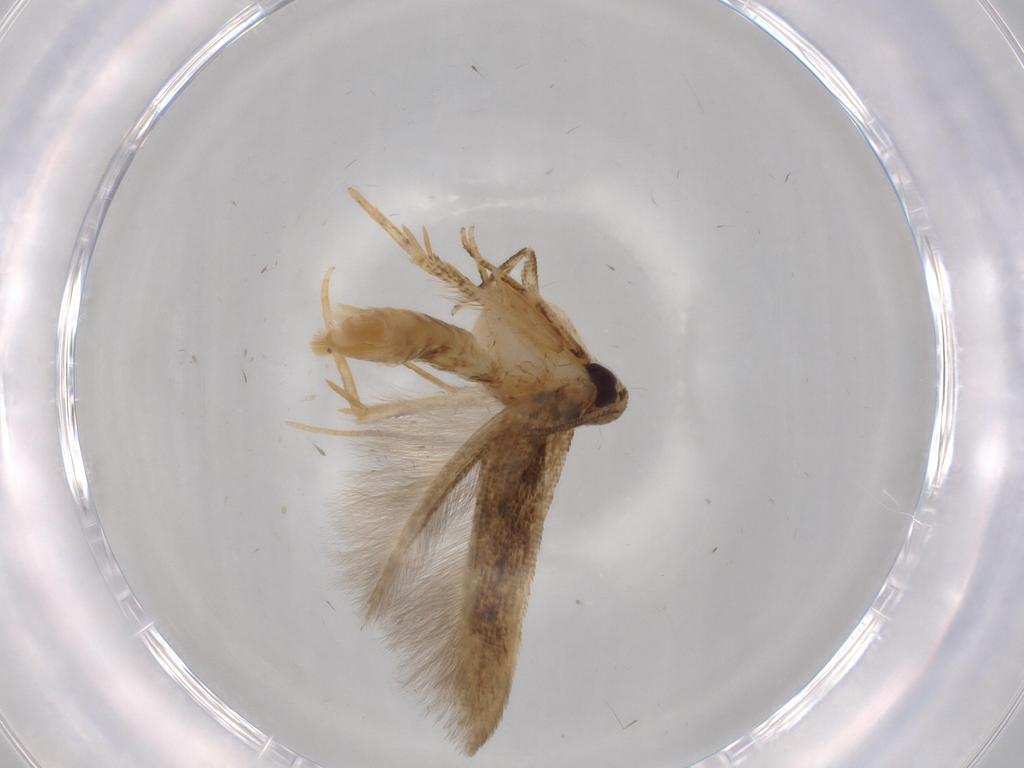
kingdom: Animalia
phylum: Arthropoda
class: Insecta
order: Lepidoptera
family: Cosmopterigidae
